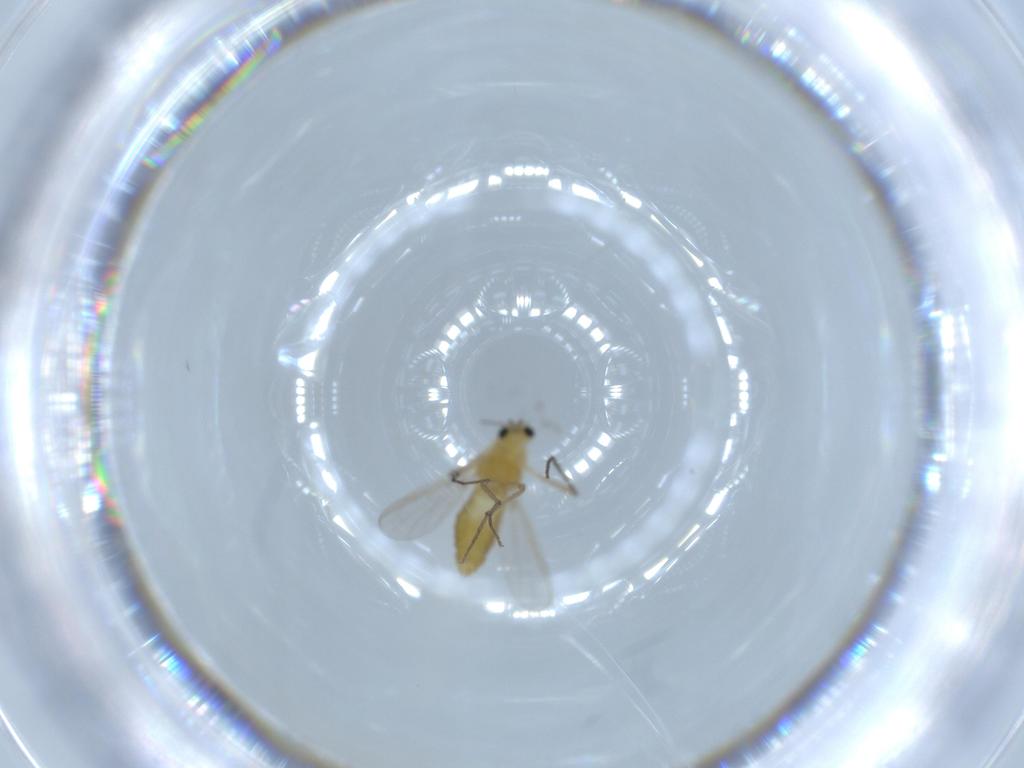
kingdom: Animalia
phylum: Arthropoda
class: Insecta
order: Diptera
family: Chironomidae
